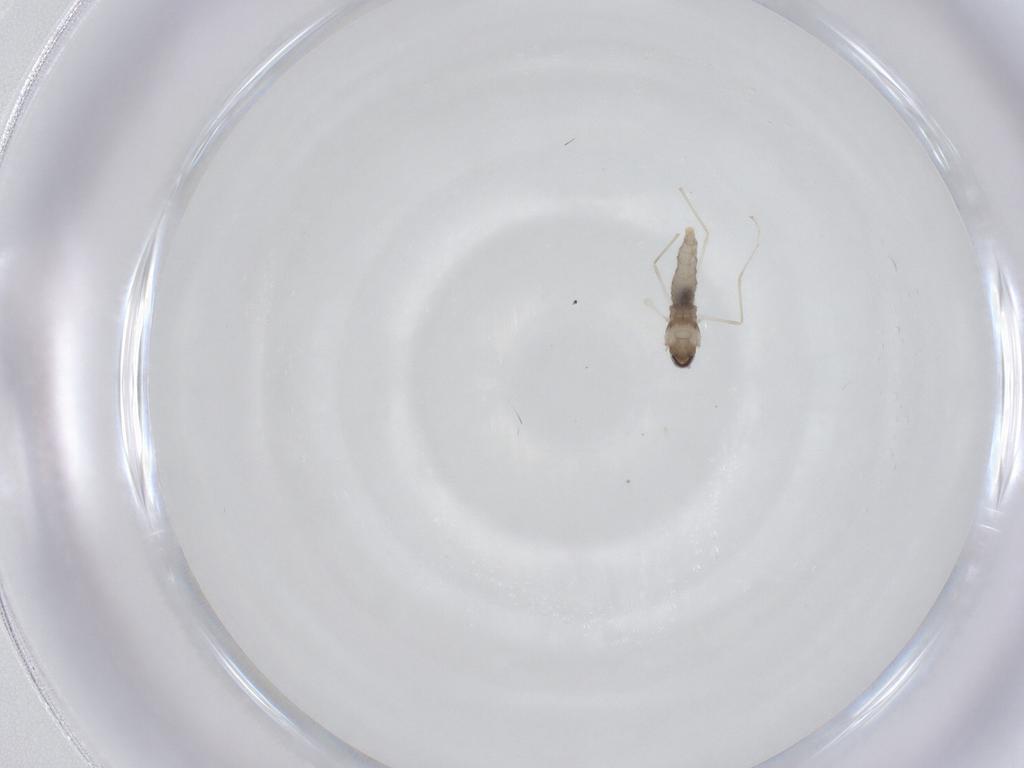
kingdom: Animalia
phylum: Arthropoda
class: Insecta
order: Diptera
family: Cecidomyiidae
